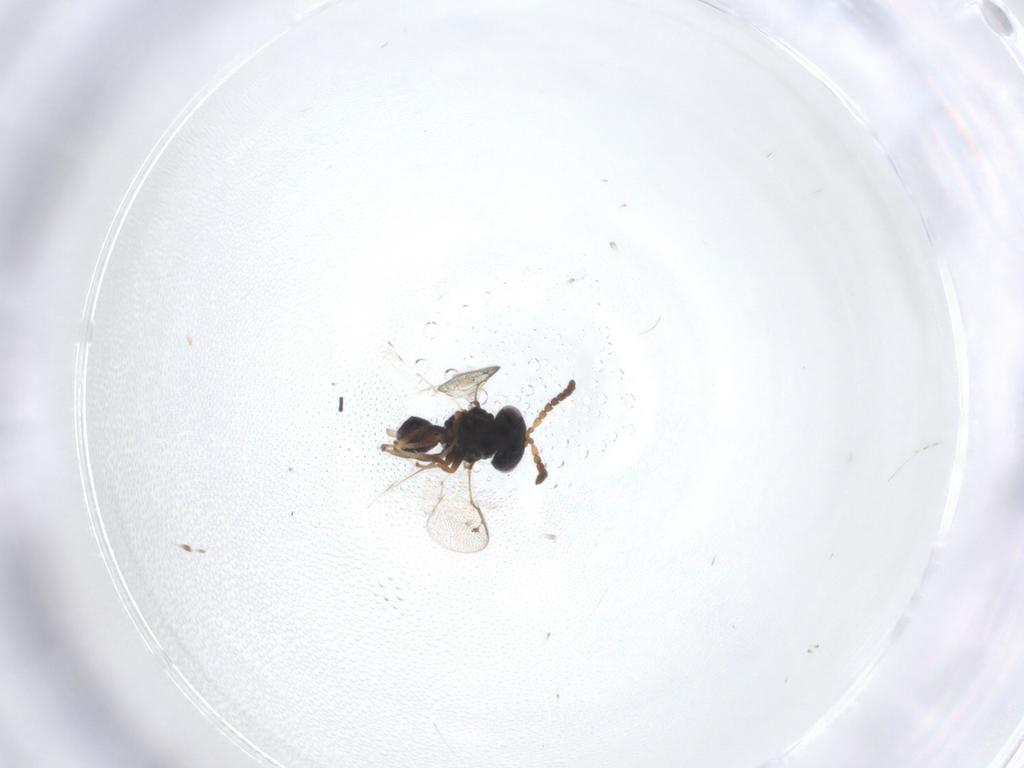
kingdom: Animalia
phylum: Arthropoda
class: Insecta
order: Hymenoptera
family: Pteromalidae
